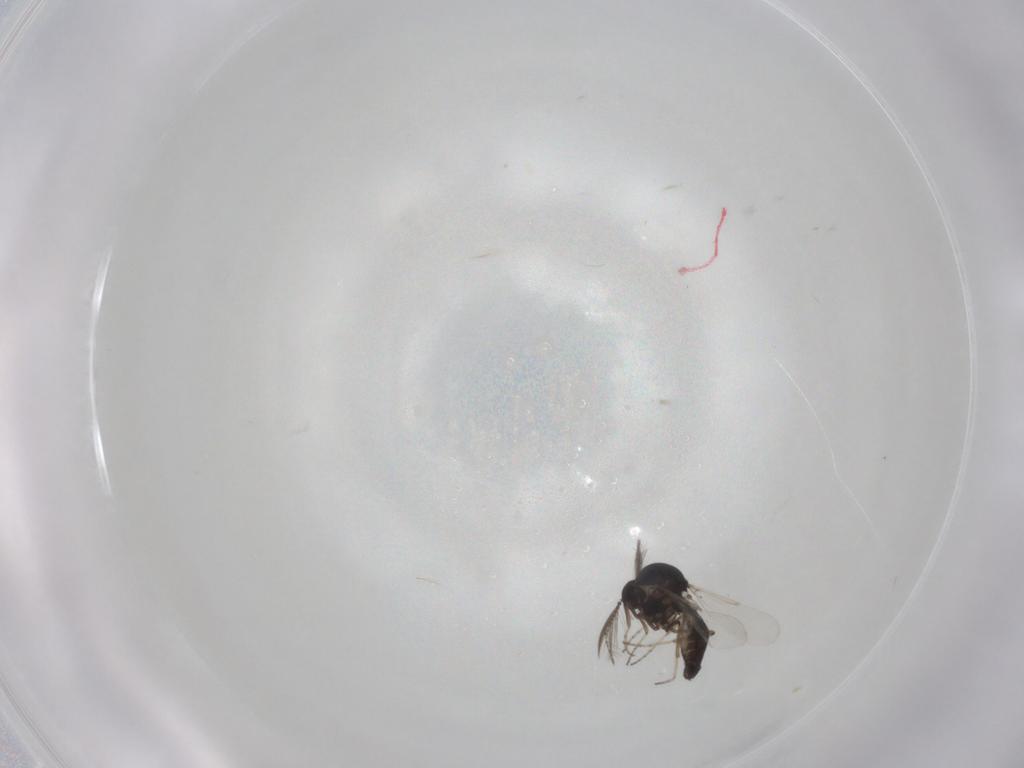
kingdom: Animalia
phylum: Arthropoda
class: Insecta
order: Diptera
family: Ceratopogonidae
